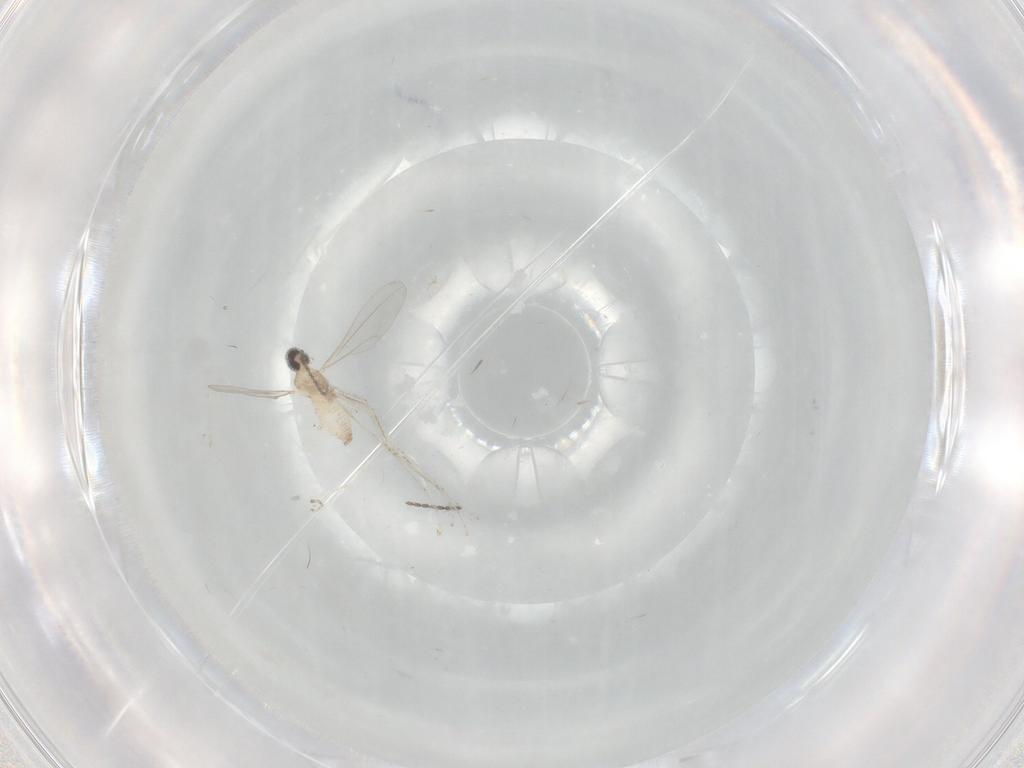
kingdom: Animalia
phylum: Arthropoda
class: Insecta
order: Diptera
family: Cecidomyiidae
